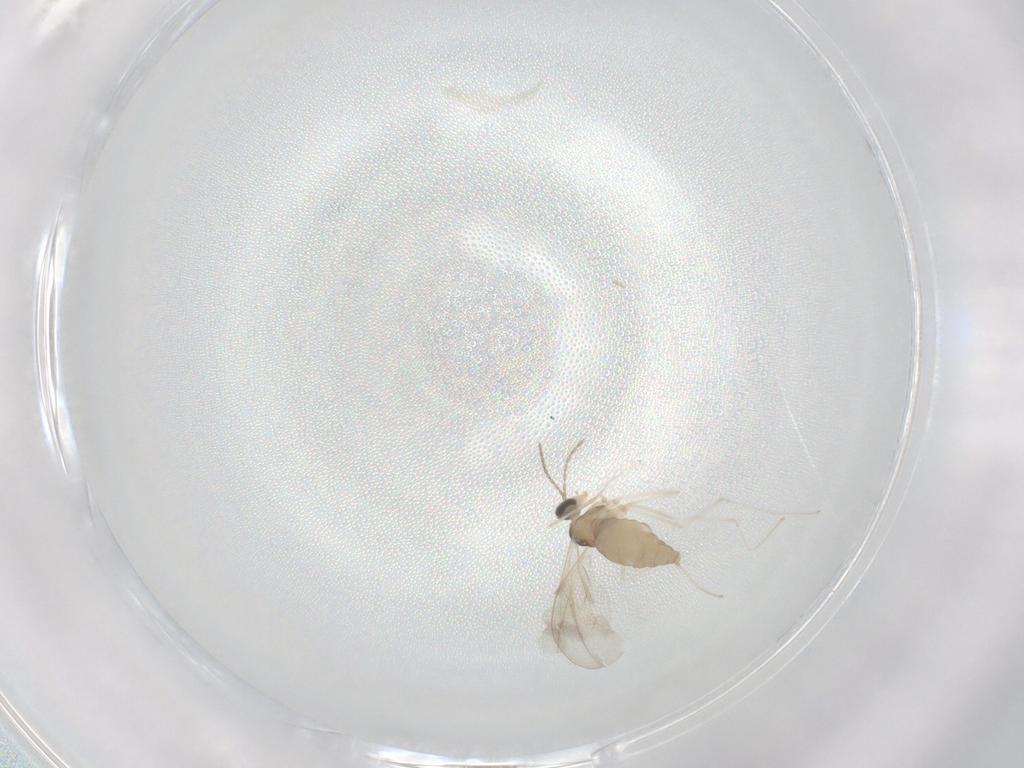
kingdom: Animalia
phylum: Arthropoda
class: Insecta
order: Diptera
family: Cecidomyiidae
